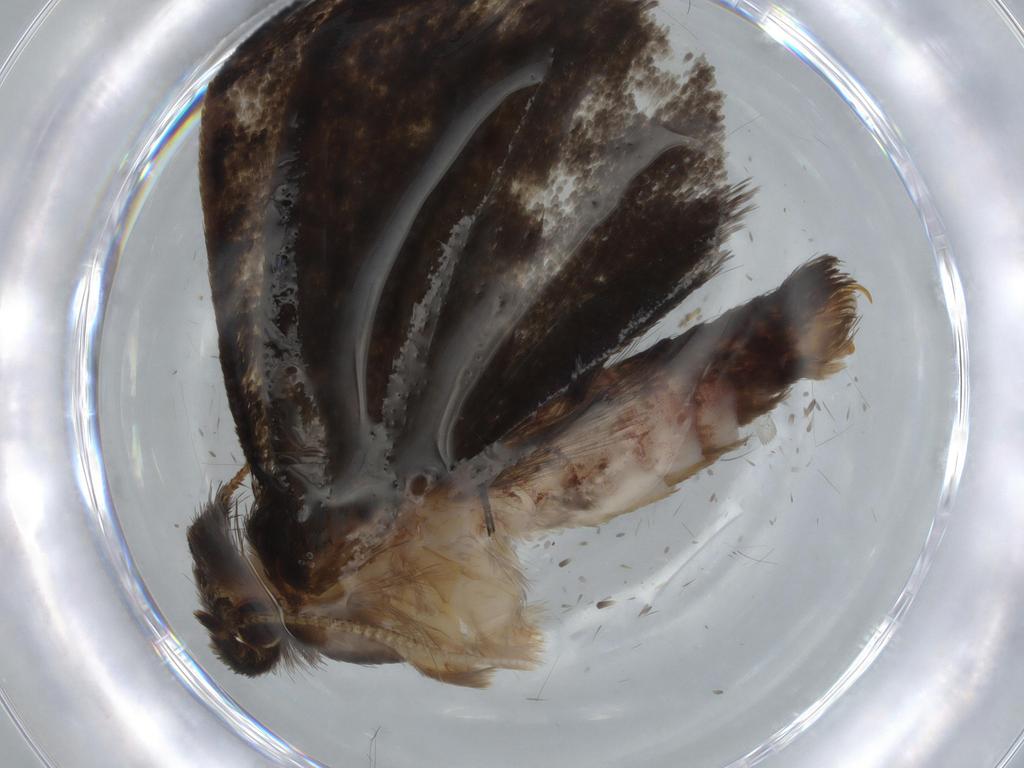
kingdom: Animalia
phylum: Arthropoda
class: Insecta
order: Lepidoptera
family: Tineidae
